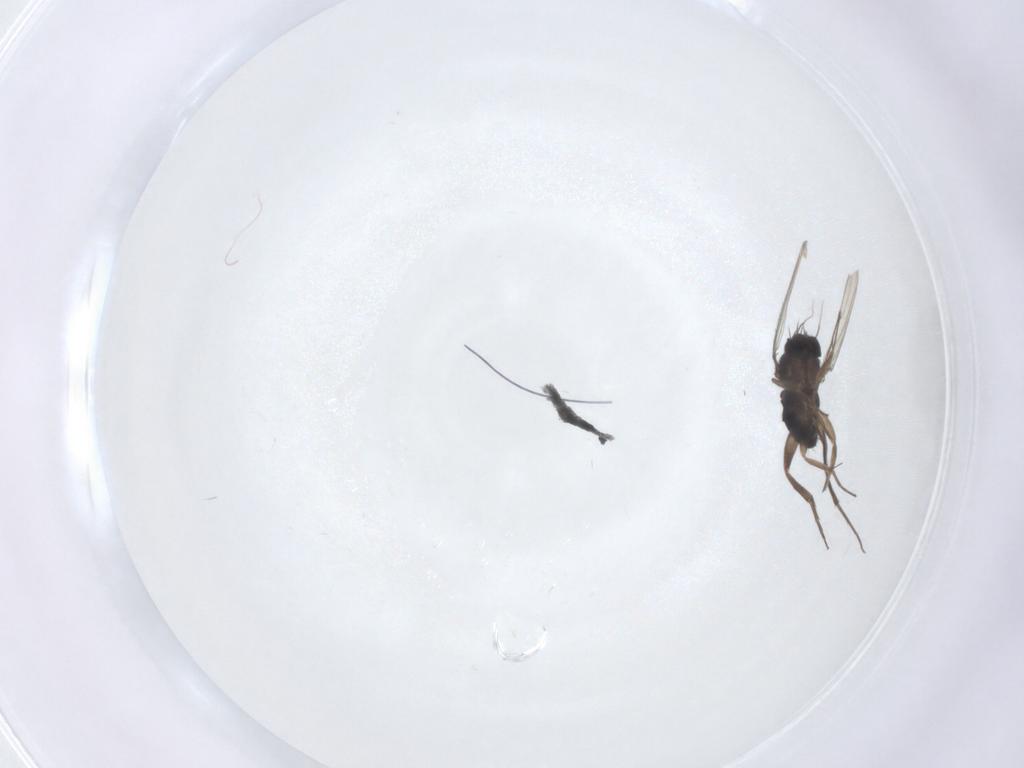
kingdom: Animalia
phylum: Arthropoda
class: Insecta
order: Diptera
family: Phoridae
